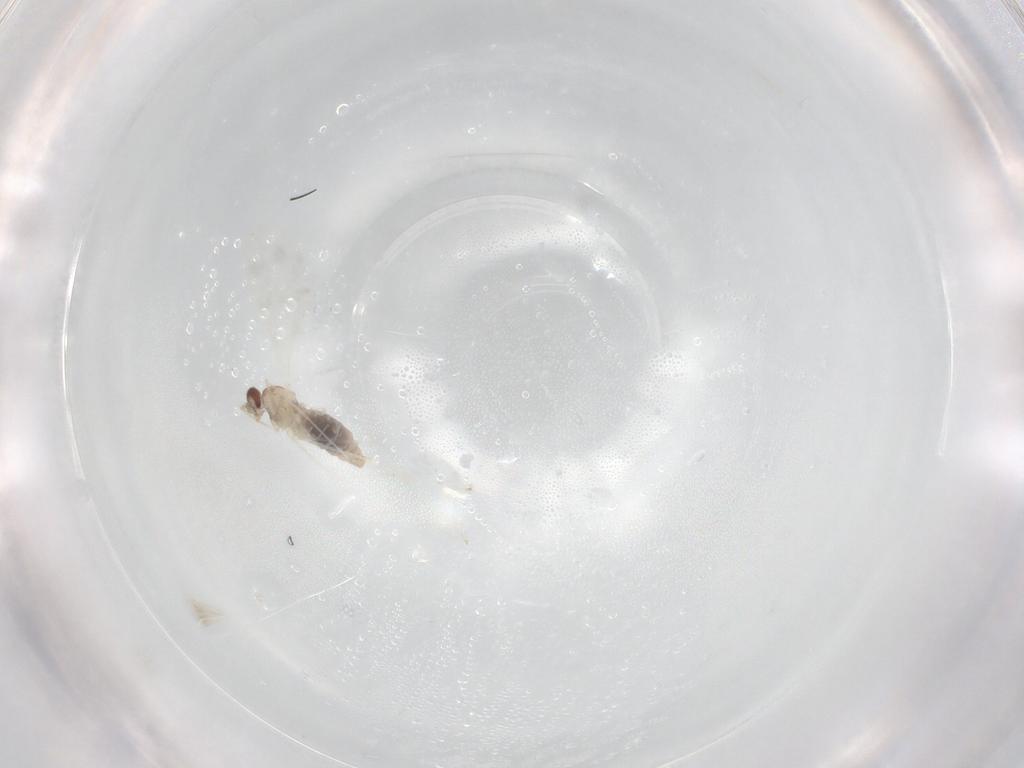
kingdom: Animalia
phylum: Arthropoda
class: Insecta
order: Diptera
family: Cecidomyiidae
